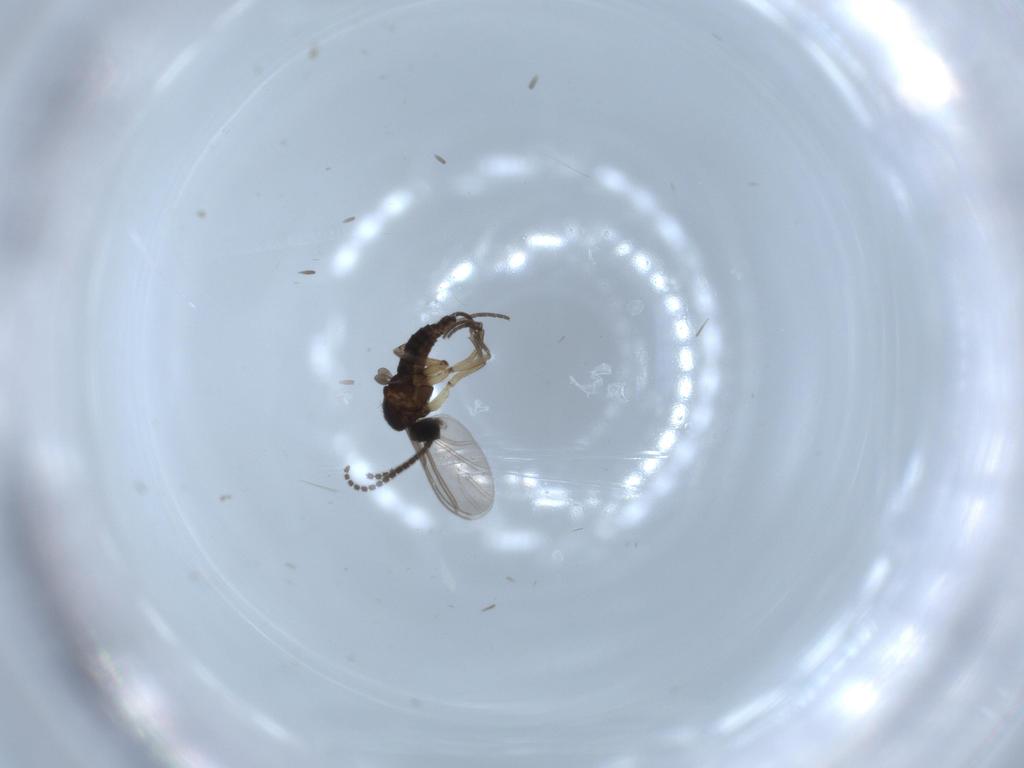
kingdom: Animalia
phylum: Arthropoda
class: Insecta
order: Diptera
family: Sciaridae
